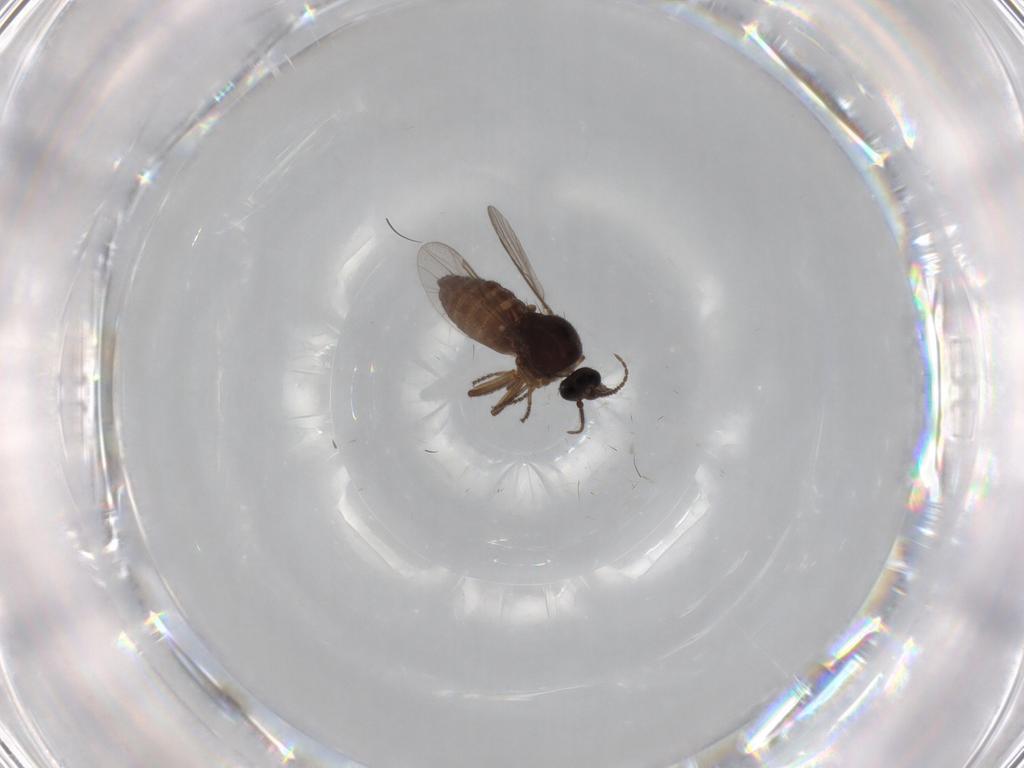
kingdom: Animalia
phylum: Arthropoda
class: Insecta
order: Diptera
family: Ceratopogonidae
